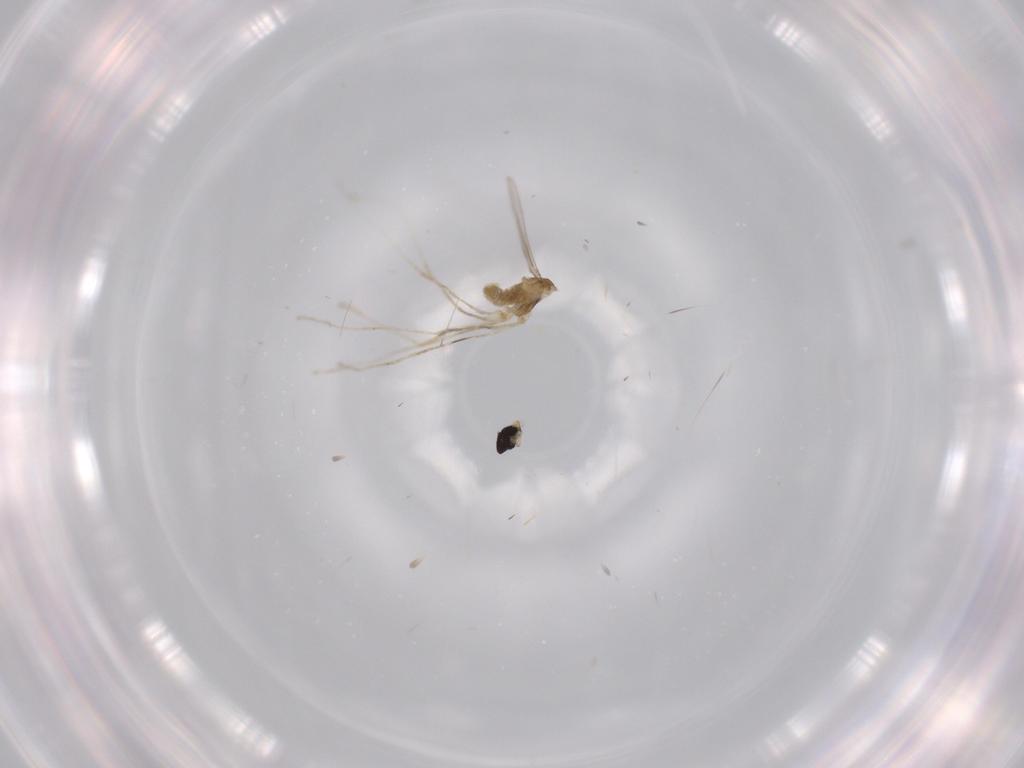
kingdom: Animalia
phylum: Arthropoda
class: Insecta
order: Diptera
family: Cecidomyiidae
